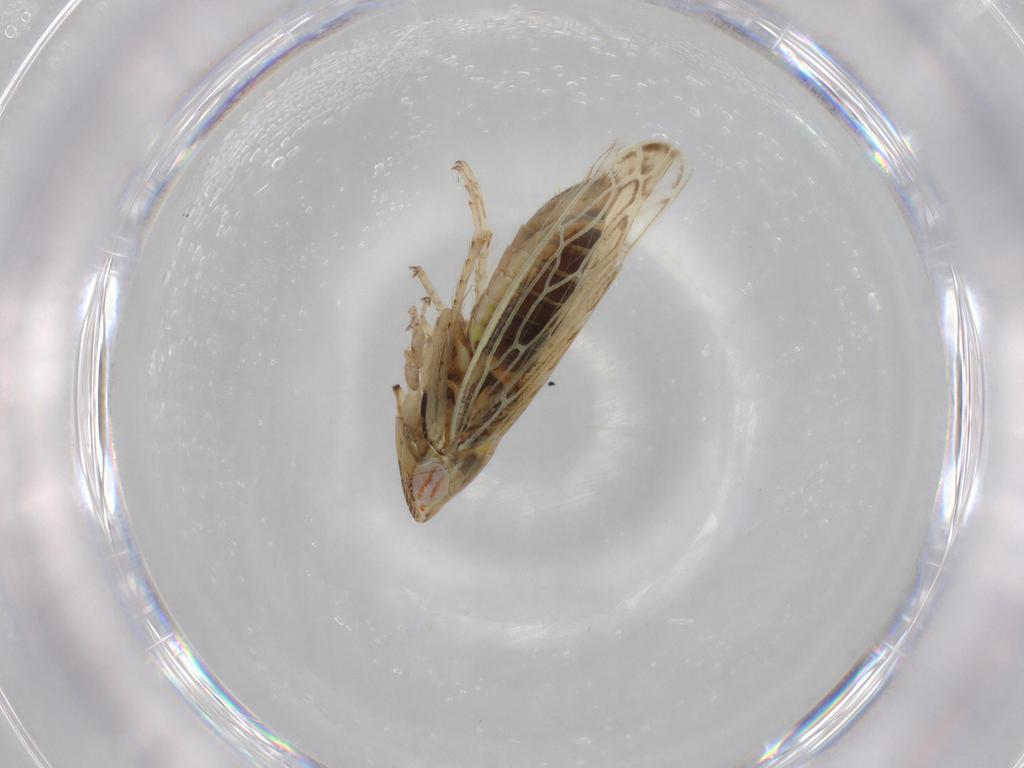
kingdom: Animalia
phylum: Arthropoda
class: Insecta
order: Hemiptera
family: Cicadellidae
